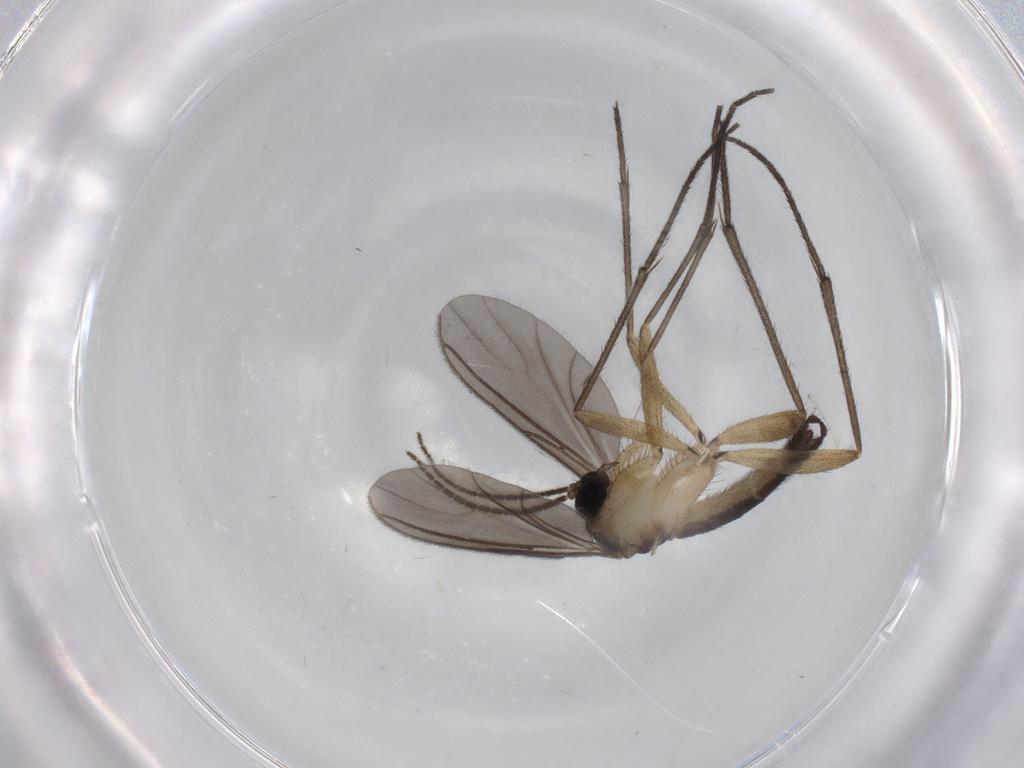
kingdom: Animalia
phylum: Arthropoda
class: Insecta
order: Diptera
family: Sciaridae
